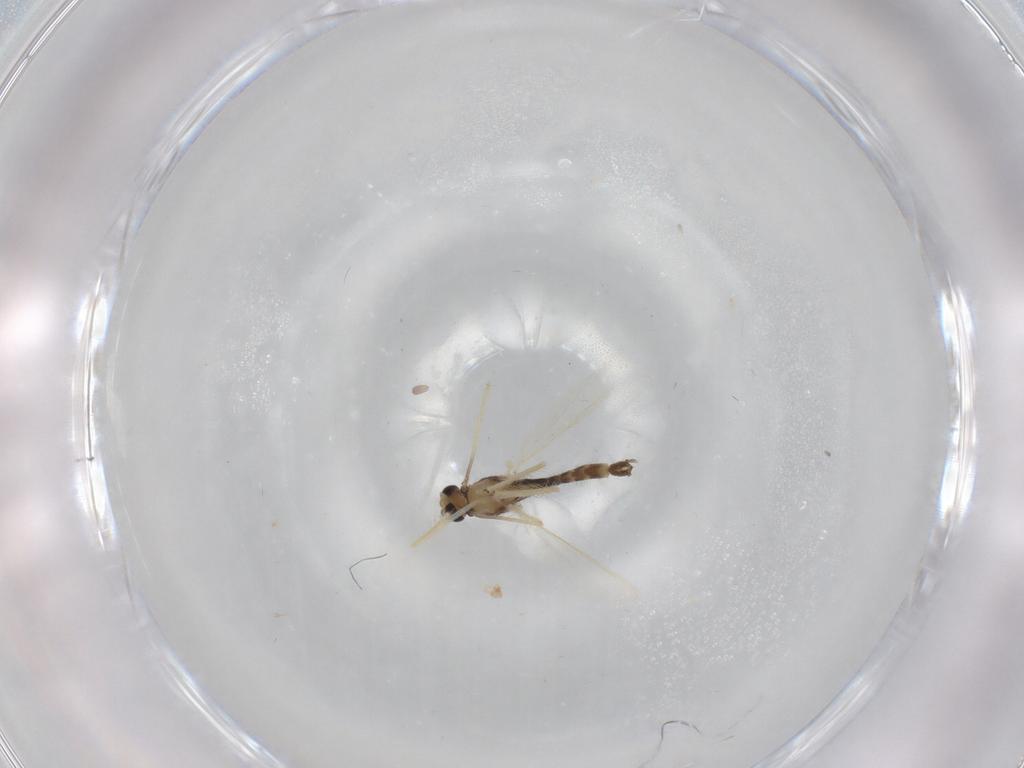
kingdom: Animalia
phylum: Arthropoda
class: Insecta
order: Diptera
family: Chironomidae
